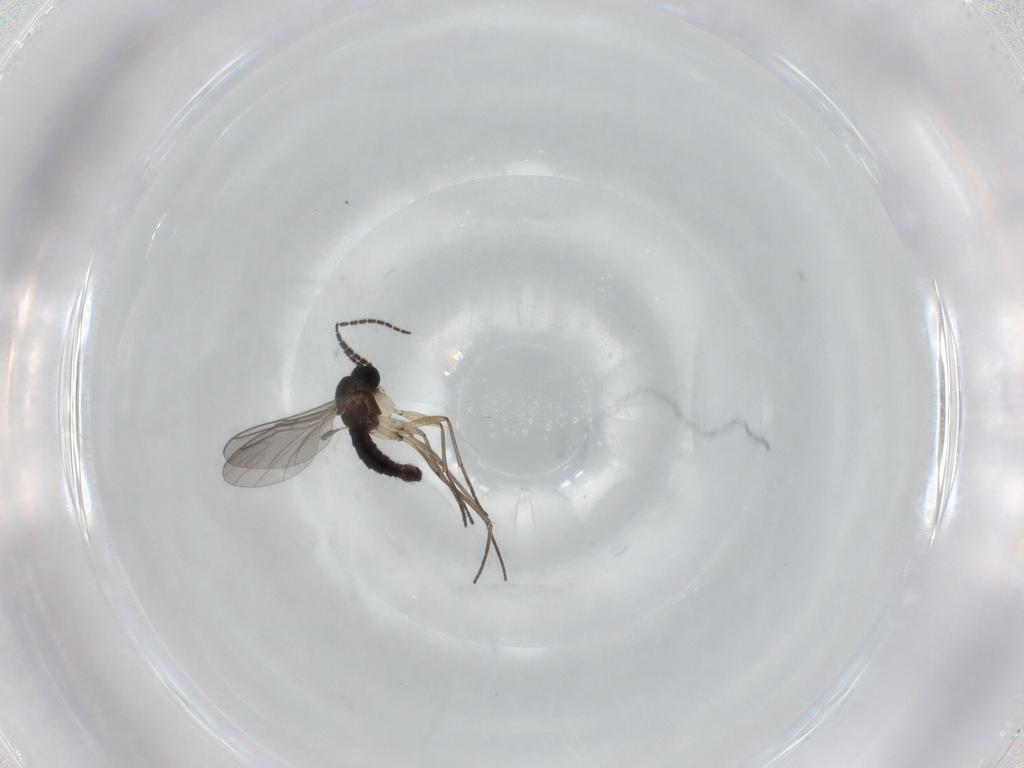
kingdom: Animalia
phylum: Arthropoda
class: Insecta
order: Diptera
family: Sciaridae
